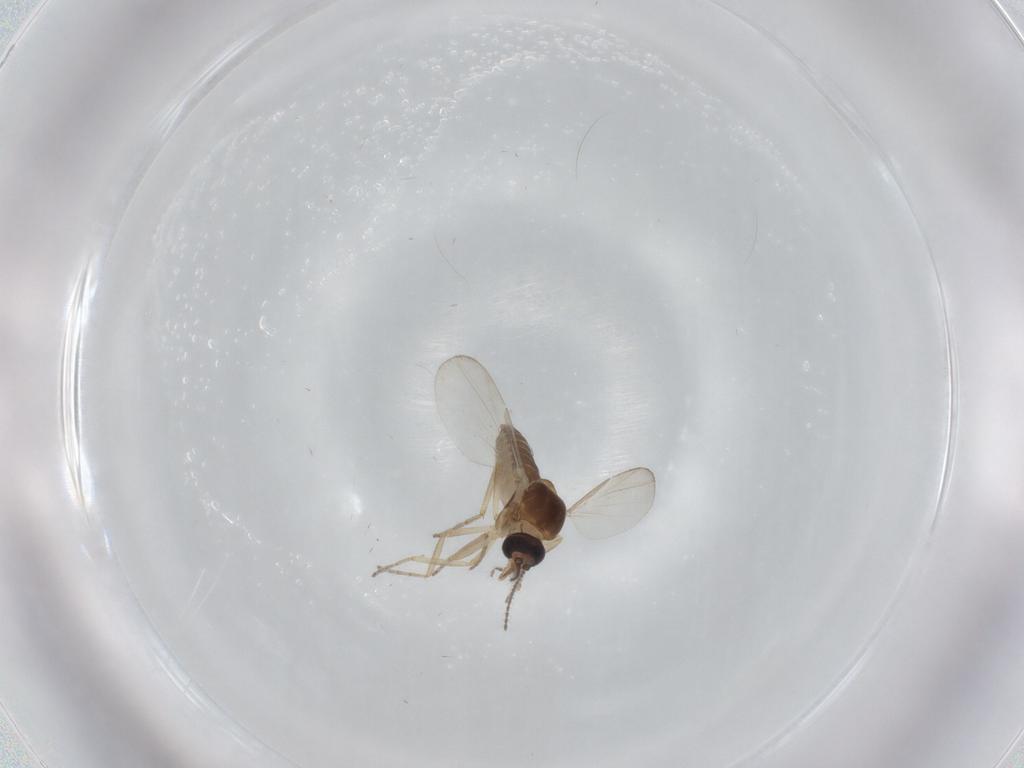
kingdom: Animalia
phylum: Arthropoda
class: Insecta
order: Diptera
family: Ceratopogonidae
